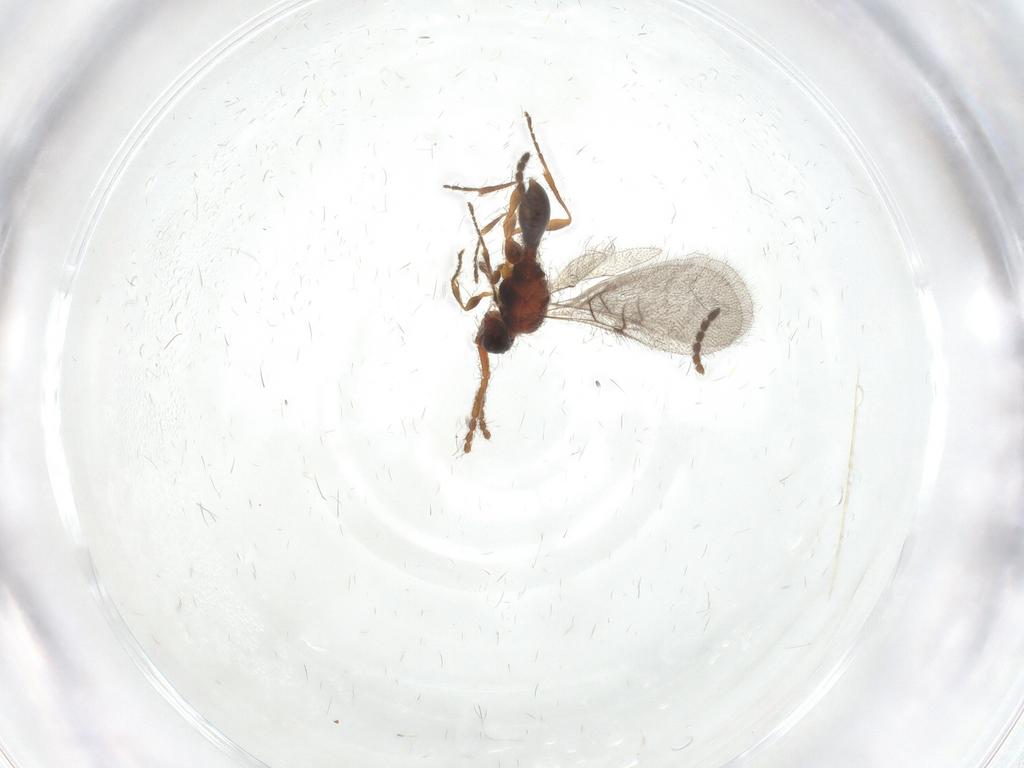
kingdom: Animalia
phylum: Arthropoda
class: Insecta
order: Hymenoptera
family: Diapriidae
